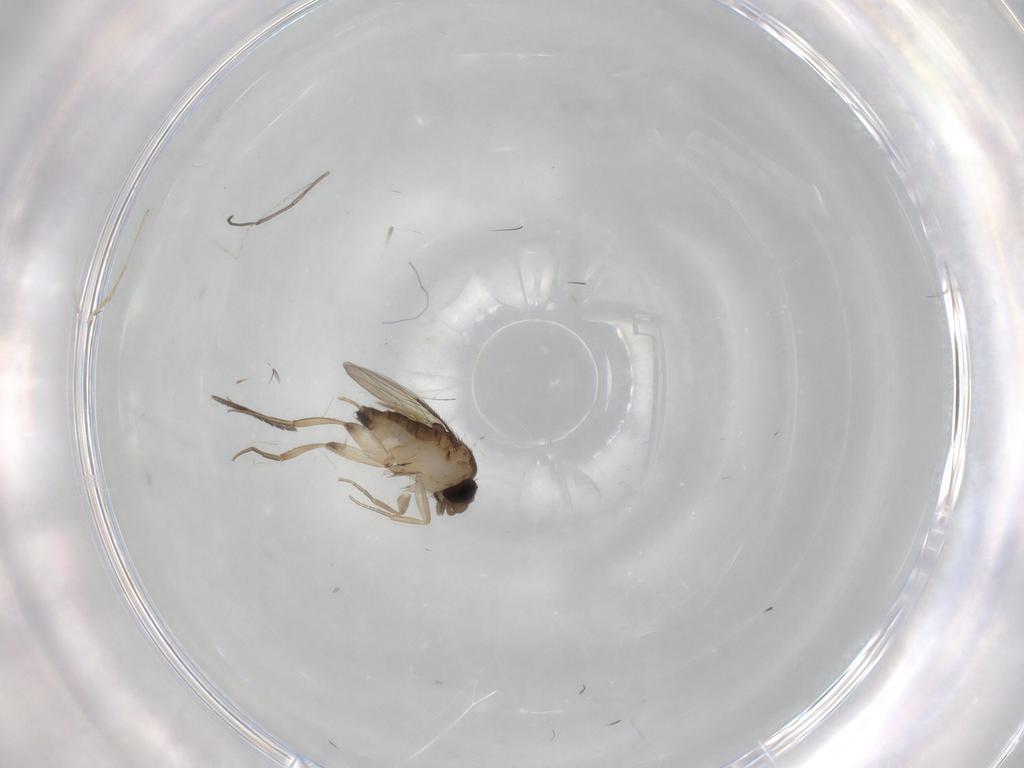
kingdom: Animalia
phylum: Arthropoda
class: Insecta
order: Diptera
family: Phoridae
